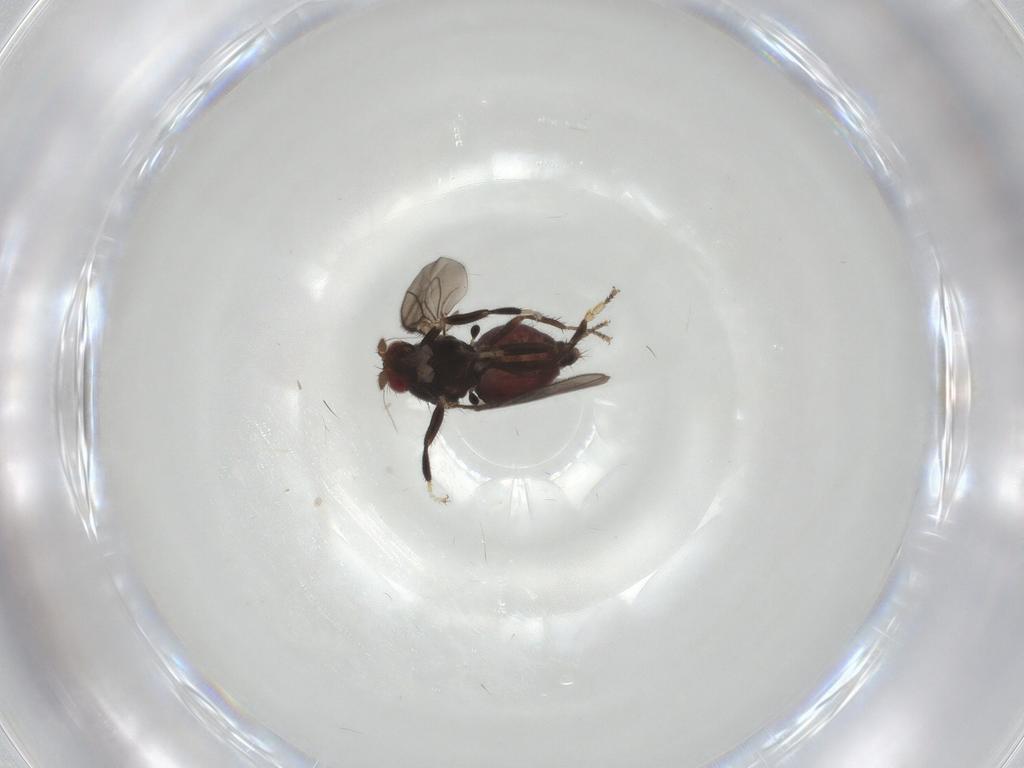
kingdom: Animalia
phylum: Arthropoda
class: Insecta
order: Diptera
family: Sphaeroceridae
